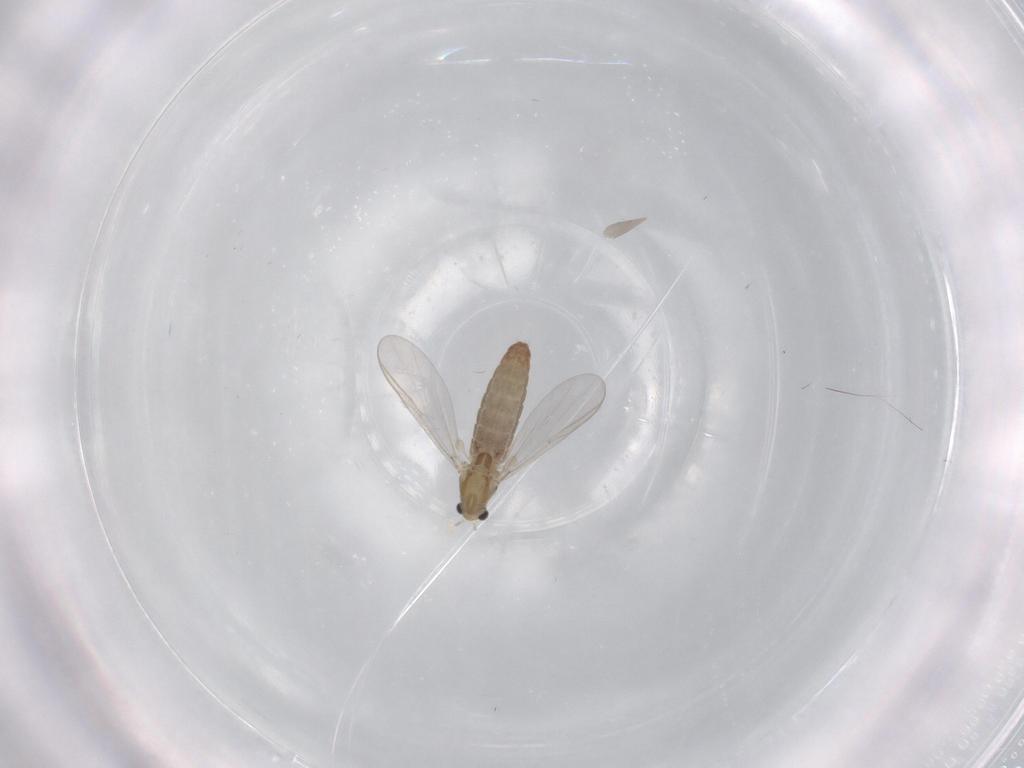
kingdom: Animalia
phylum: Arthropoda
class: Insecta
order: Diptera
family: Chironomidae
